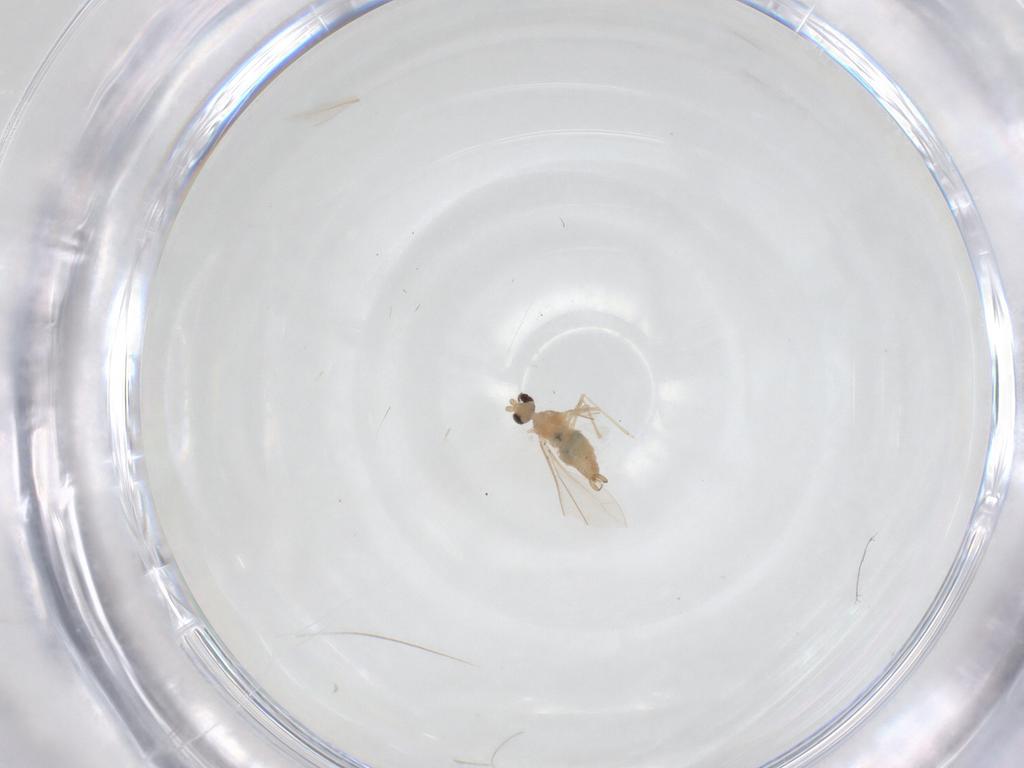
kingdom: Animalia
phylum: Arthropoda
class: Insecta
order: Diptera
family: Cecidomyiidae
